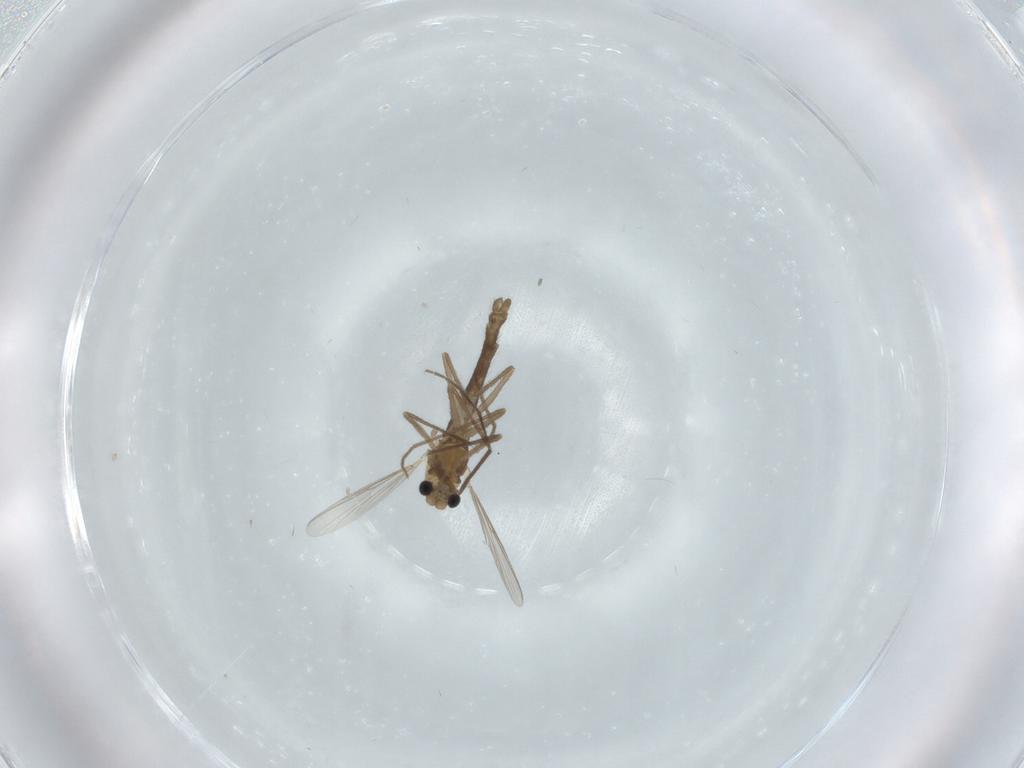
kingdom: Animalia
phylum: Arthropoda
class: Insecta
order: Diptera
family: Chironomidae
